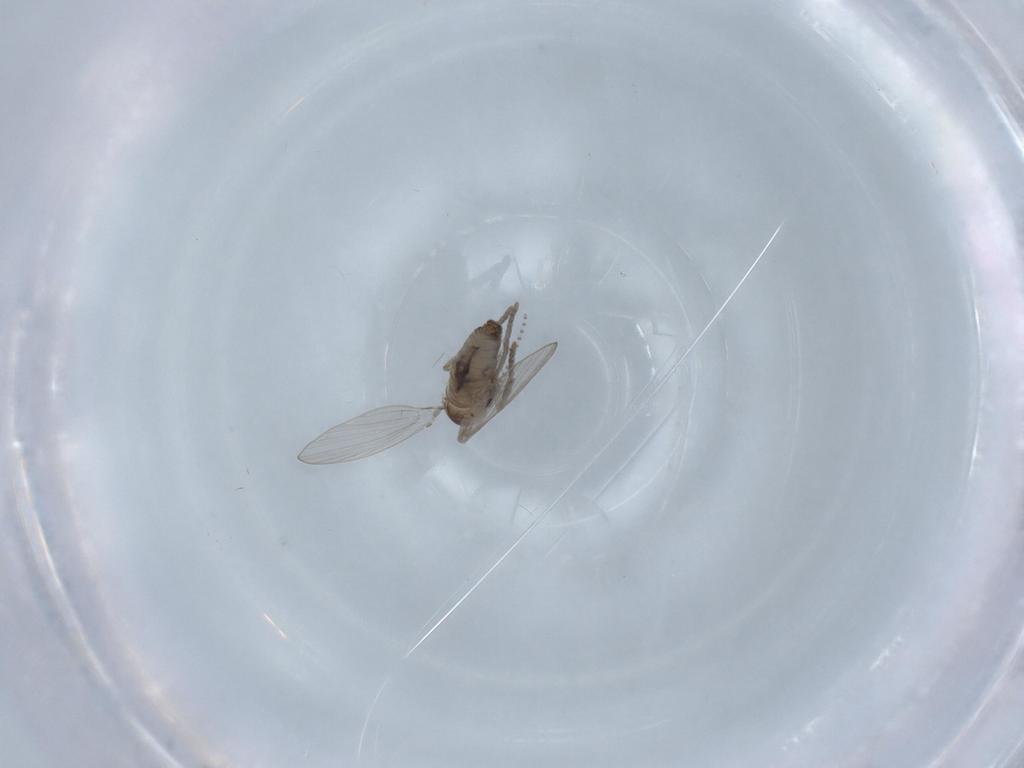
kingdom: Animalia
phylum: Arthropoda
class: Insecta
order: Diptera
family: Psychodidae
